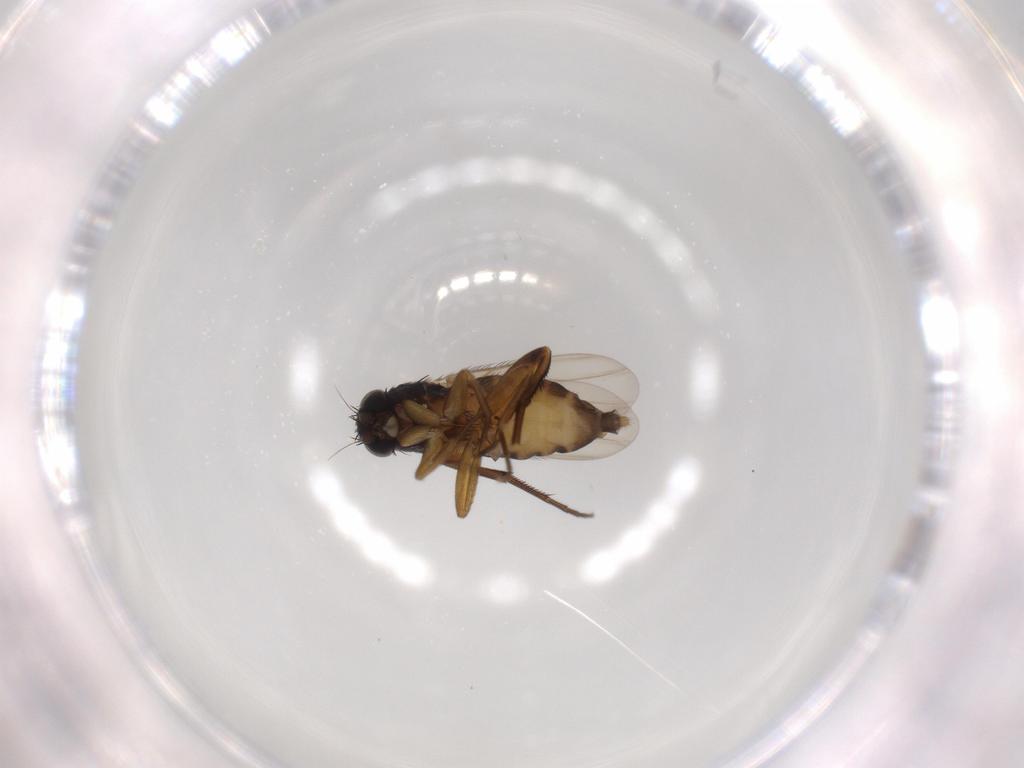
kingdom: Animalia
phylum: Arthropoda
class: Insecta
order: Diptera
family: Phoridae
